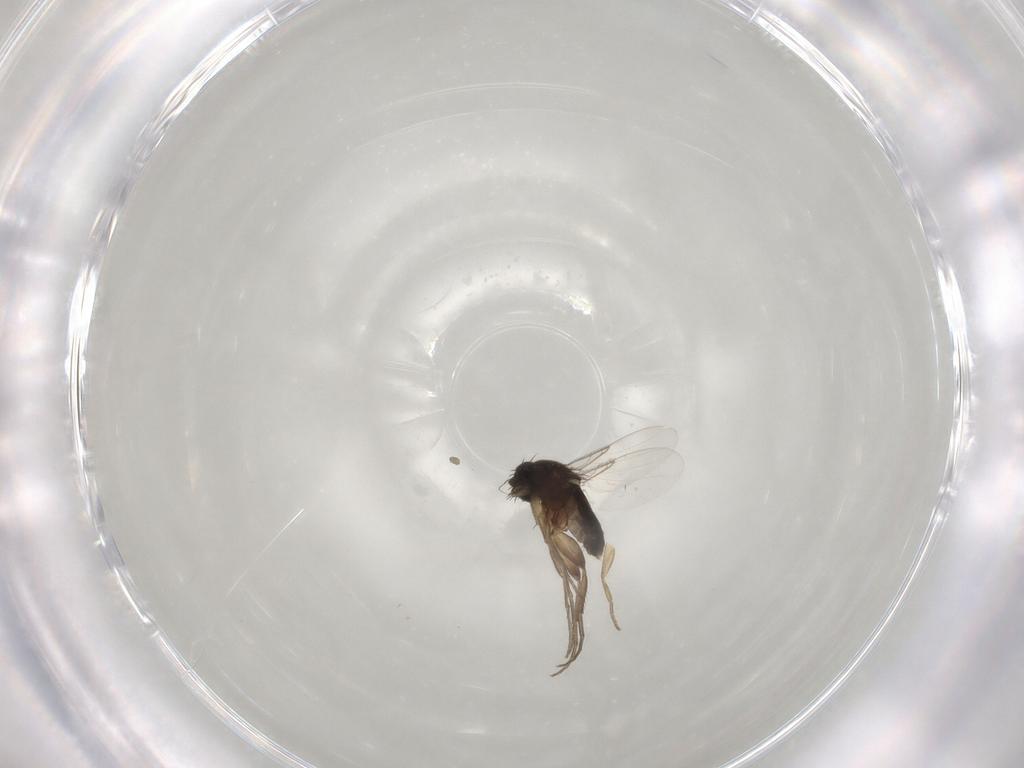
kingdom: Animalia
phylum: Arthropoda
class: Insecta
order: Diptera
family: Phoridae
